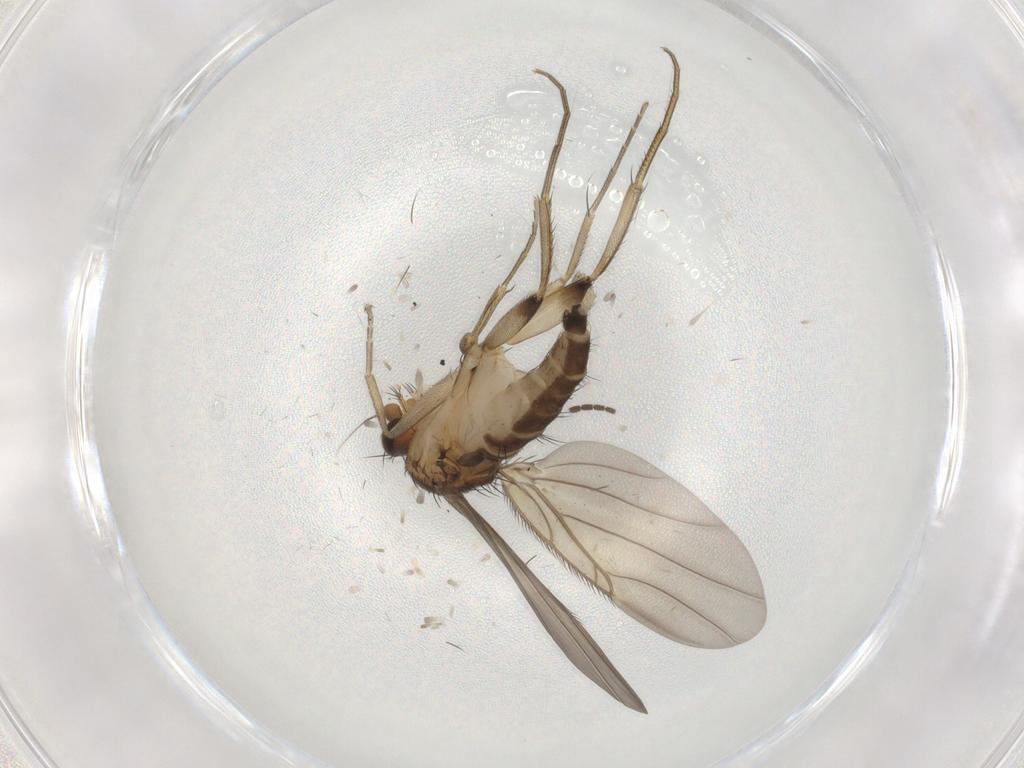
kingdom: Animalia
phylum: Arthropoda
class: Insecta
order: Diptera
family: Phoridae
